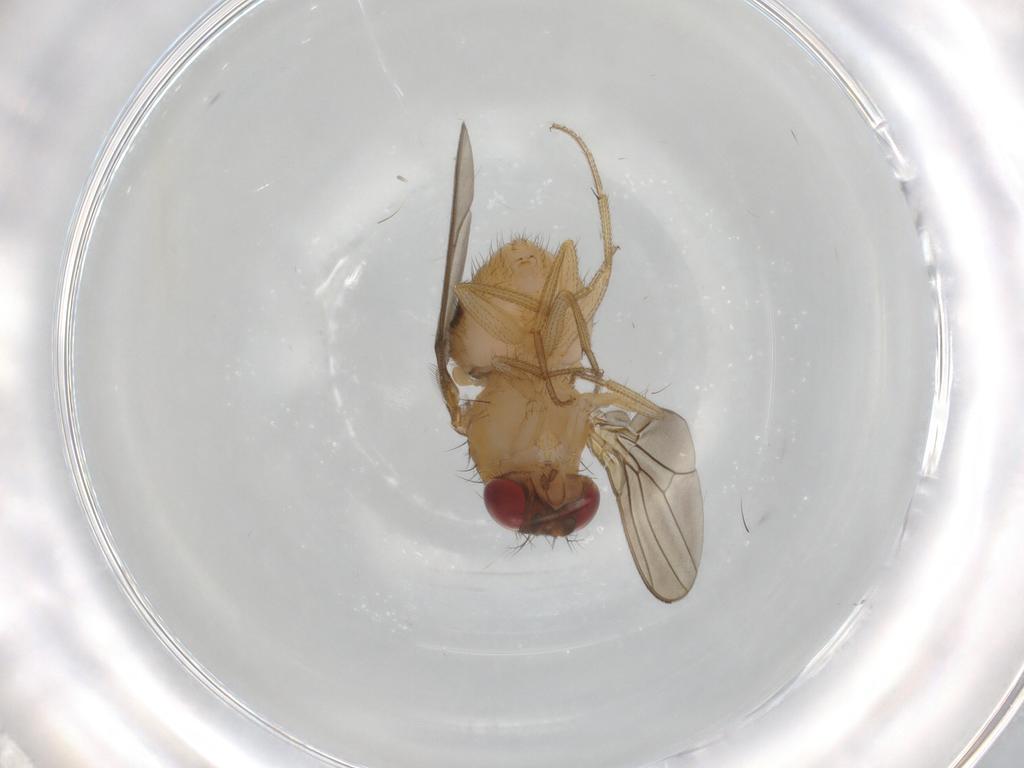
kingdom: Animalia
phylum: Arthropoda
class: Insecta
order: Diptera
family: Drosophilidae
